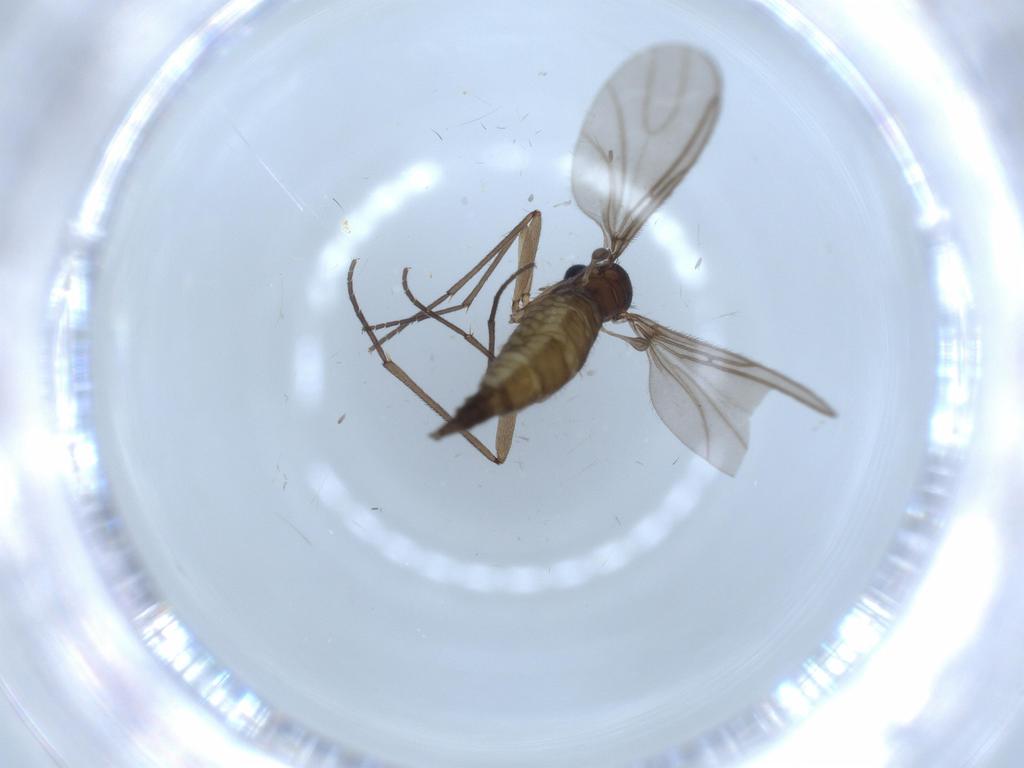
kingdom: Animalia
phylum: Arthropoda
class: Insecta
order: Diptera
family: Sciaridae
